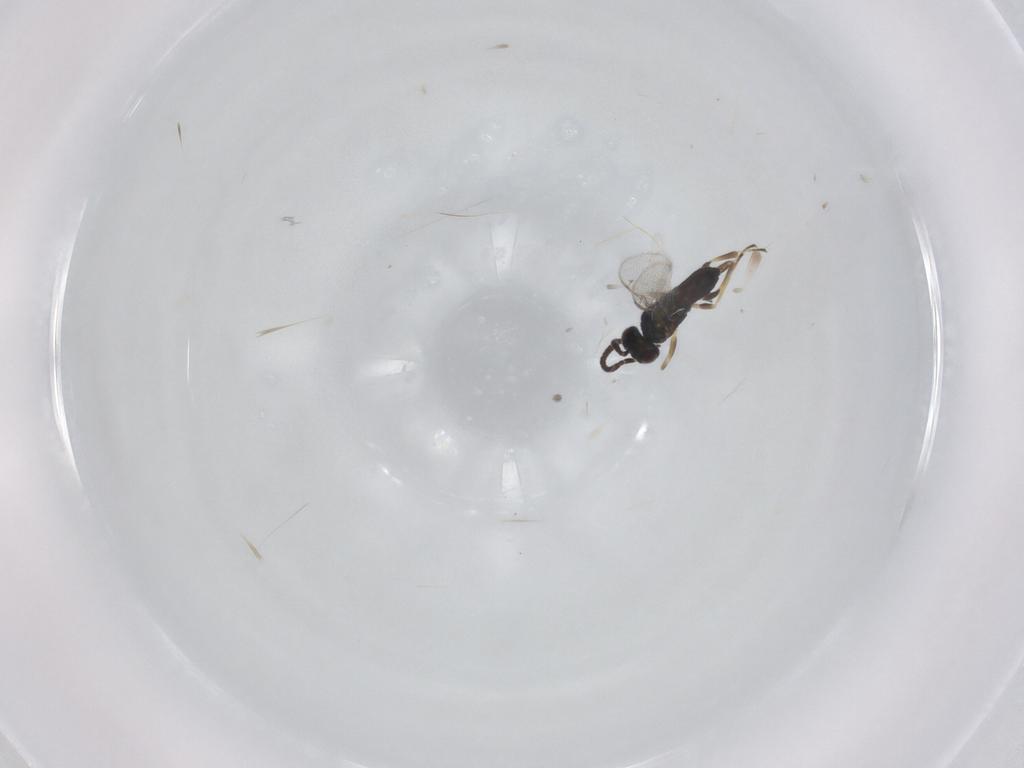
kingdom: Animalia
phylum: Arthropoda
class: Insecta
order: Hymenoptera
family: Eupelmidae
